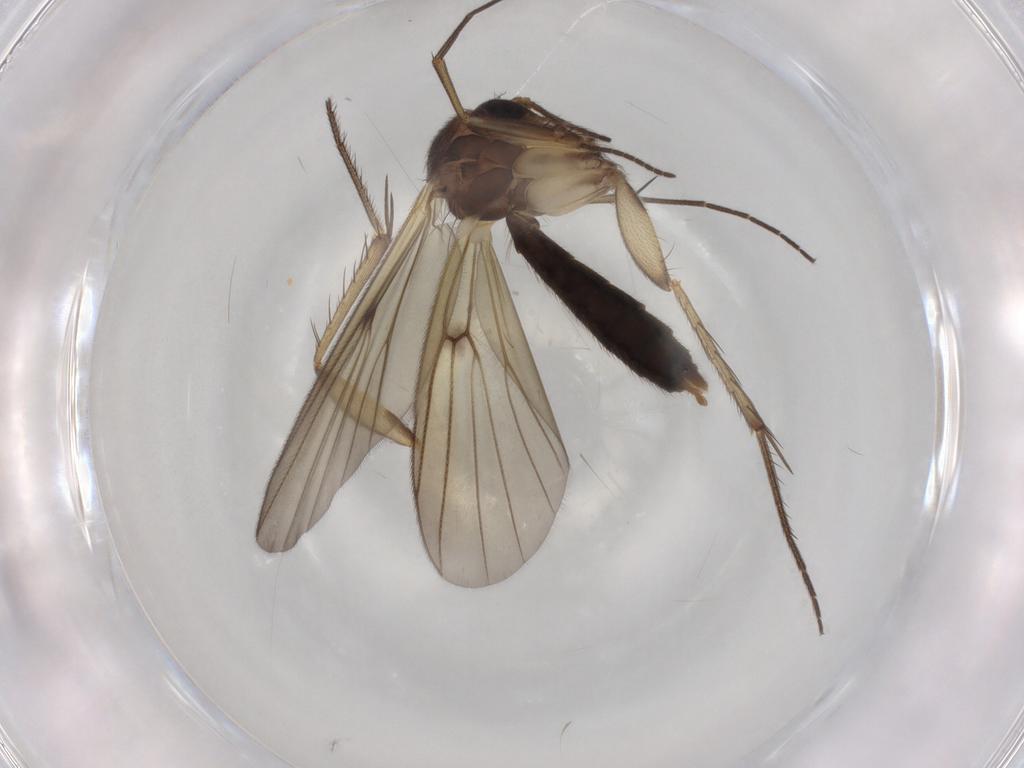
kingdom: Animalia
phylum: Arthropoda
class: Insecta
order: Diptera
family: Mycetophilidae
